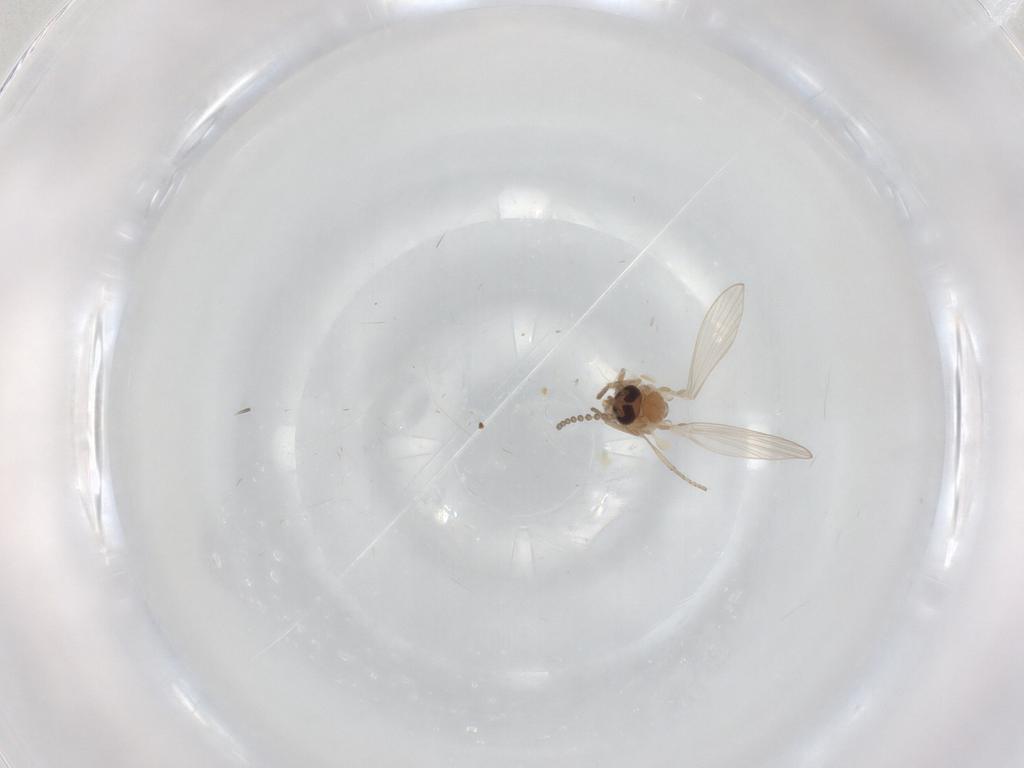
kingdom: Animalia
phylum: Arthropoda
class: Insecta
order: Diptera
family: Psychodidae
